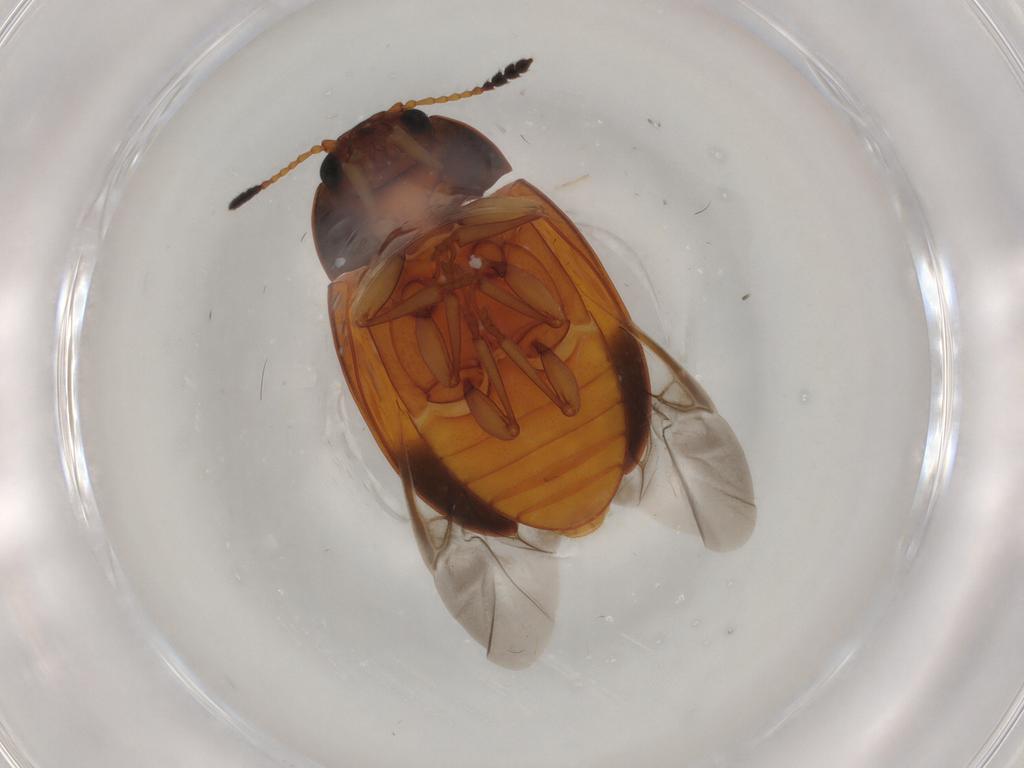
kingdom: Animalia
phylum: Arthropoda
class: Insecta
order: Coleoptera
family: Erotylidae
